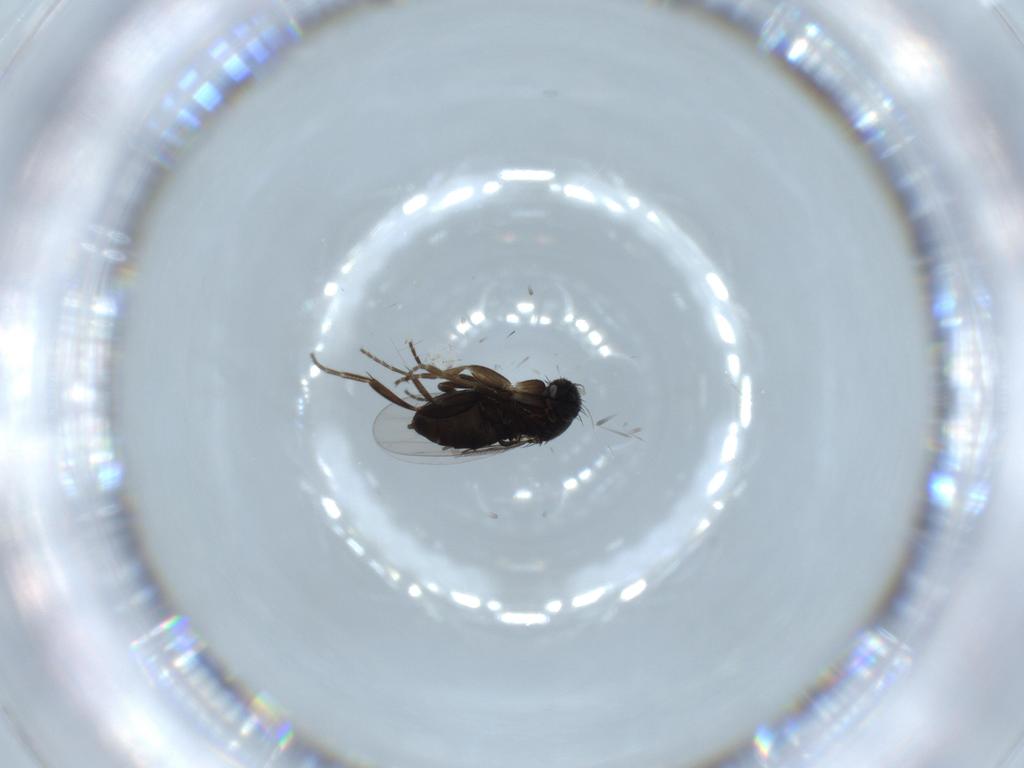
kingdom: Animalia
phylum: Arthropoda
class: Insecta
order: Diptera
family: Phoridae
